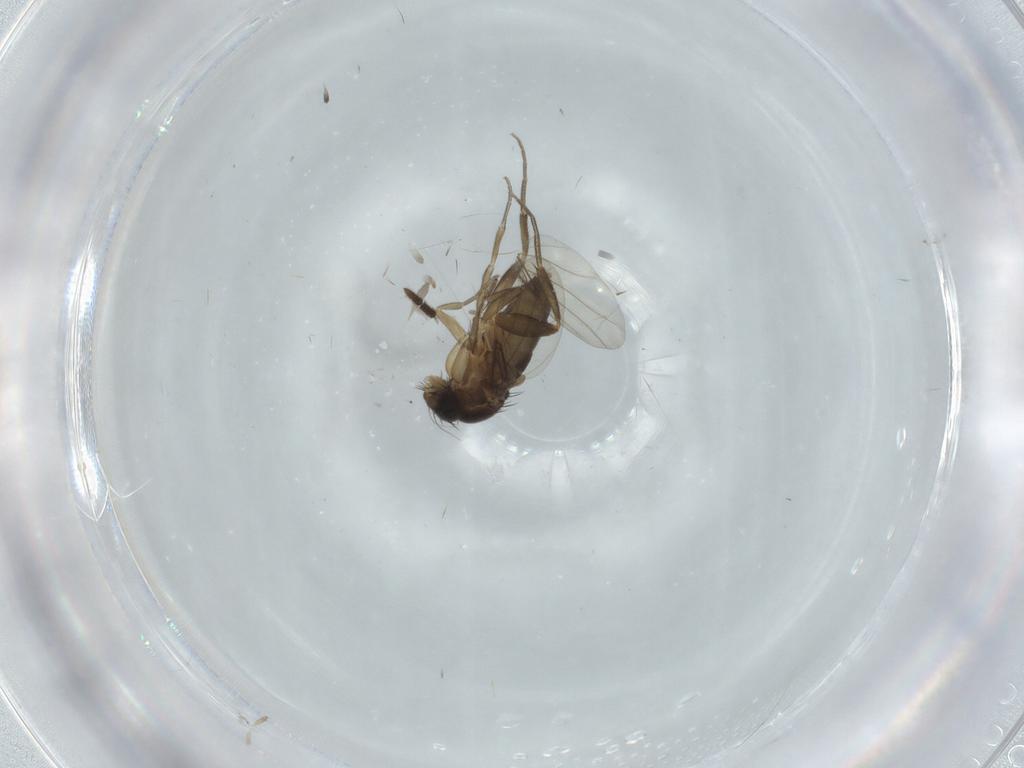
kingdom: Animalia
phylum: Arthropoda
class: Insecta
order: Diptera
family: Phoridae
